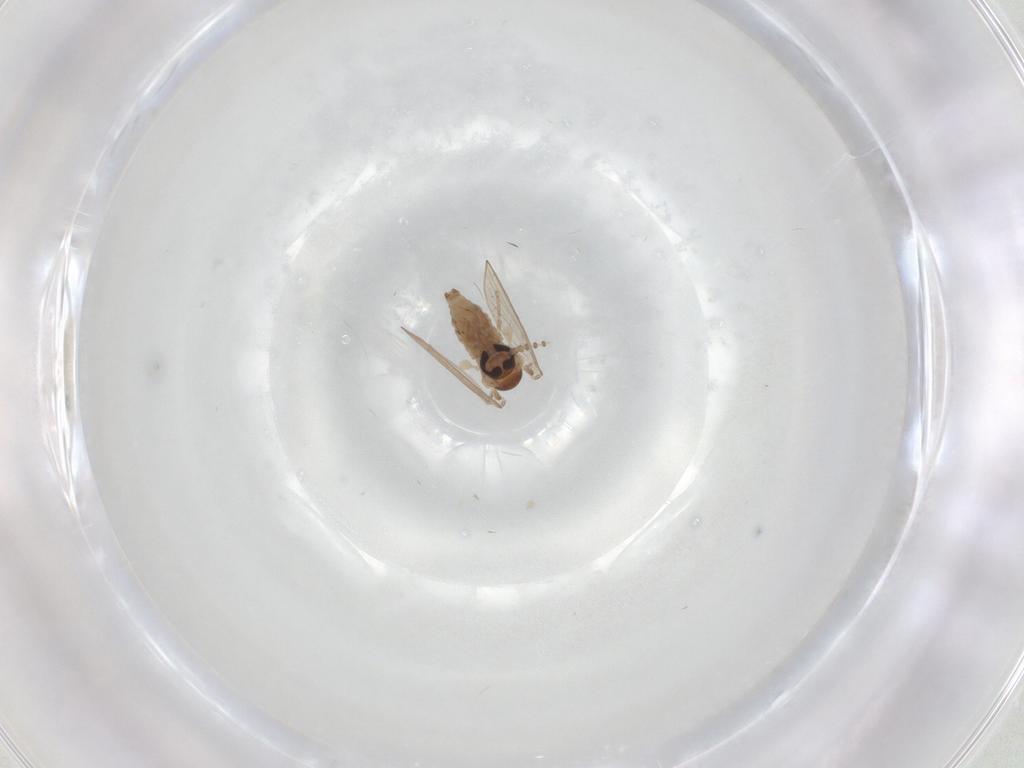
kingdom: Animalia
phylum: Arthropoda
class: Insecta
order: Diptera
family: Psychodidae
